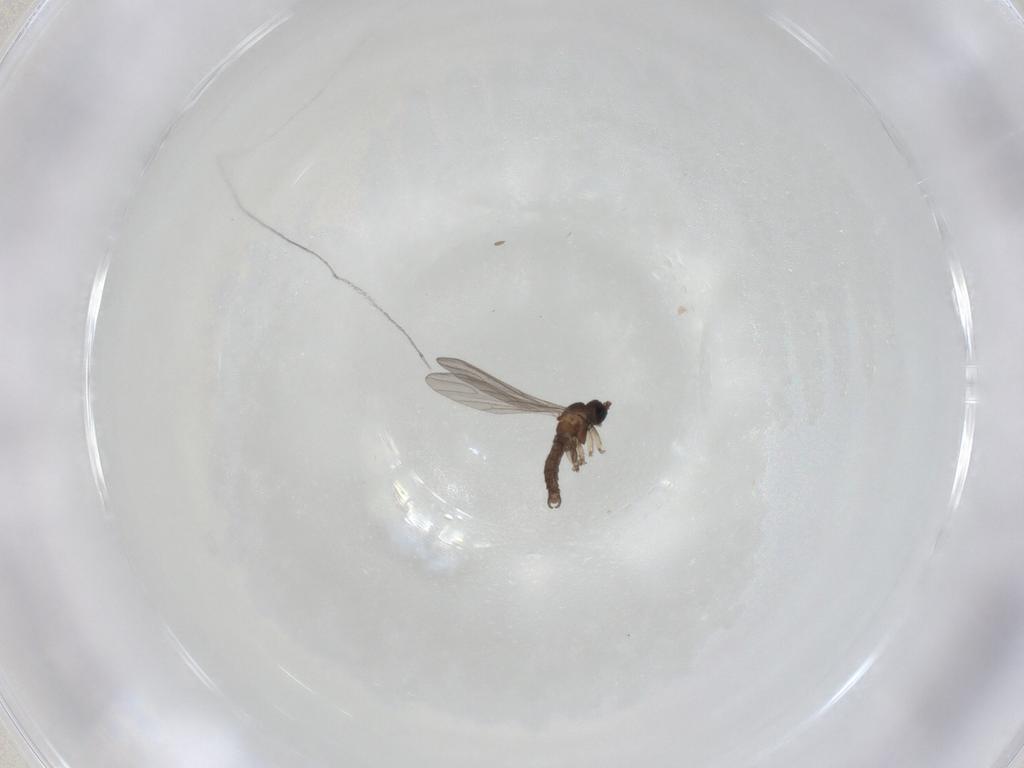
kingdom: Animalia
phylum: Arthropoda
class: Insecta
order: Diptera
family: Sciaridae
